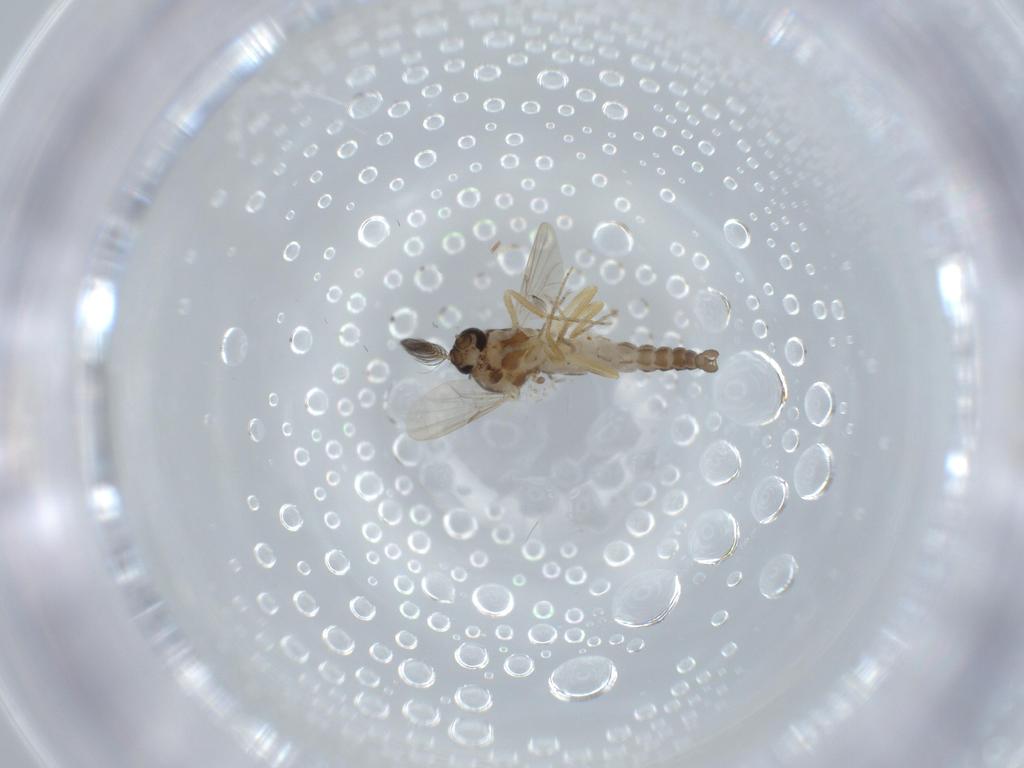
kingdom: Animalia
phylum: Arthropoda
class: Insecta
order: Diptera
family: Ceratopogonidae
